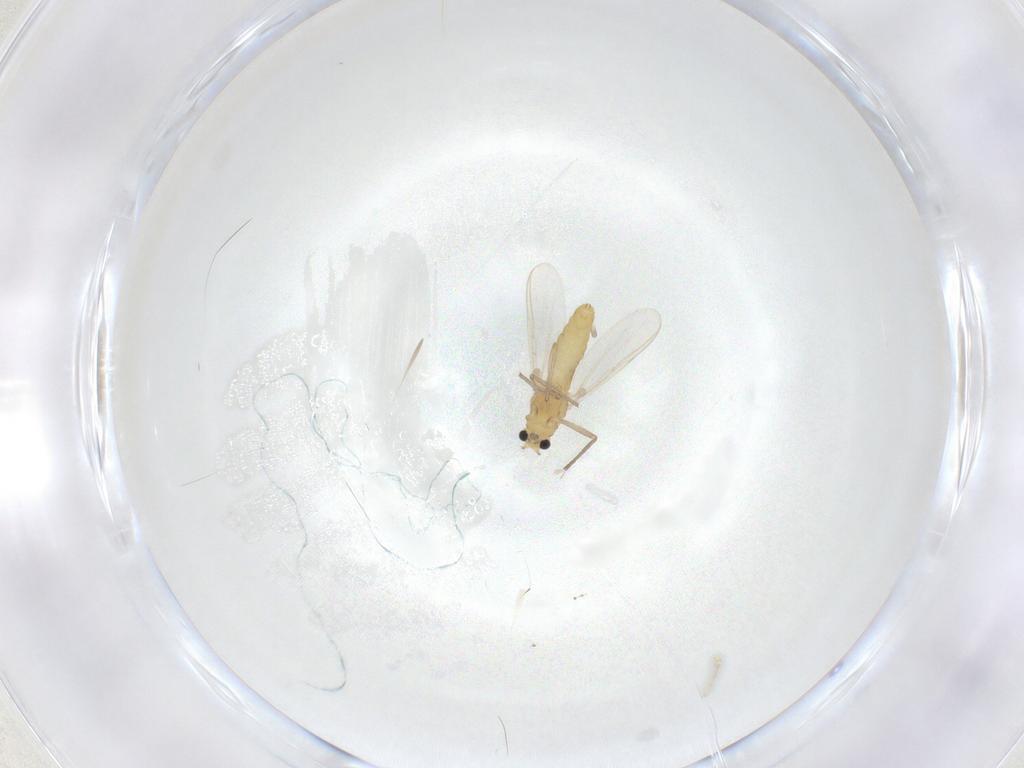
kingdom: Animalia
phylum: Arthropoda
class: Insecta
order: Diptera
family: Chironomidae
